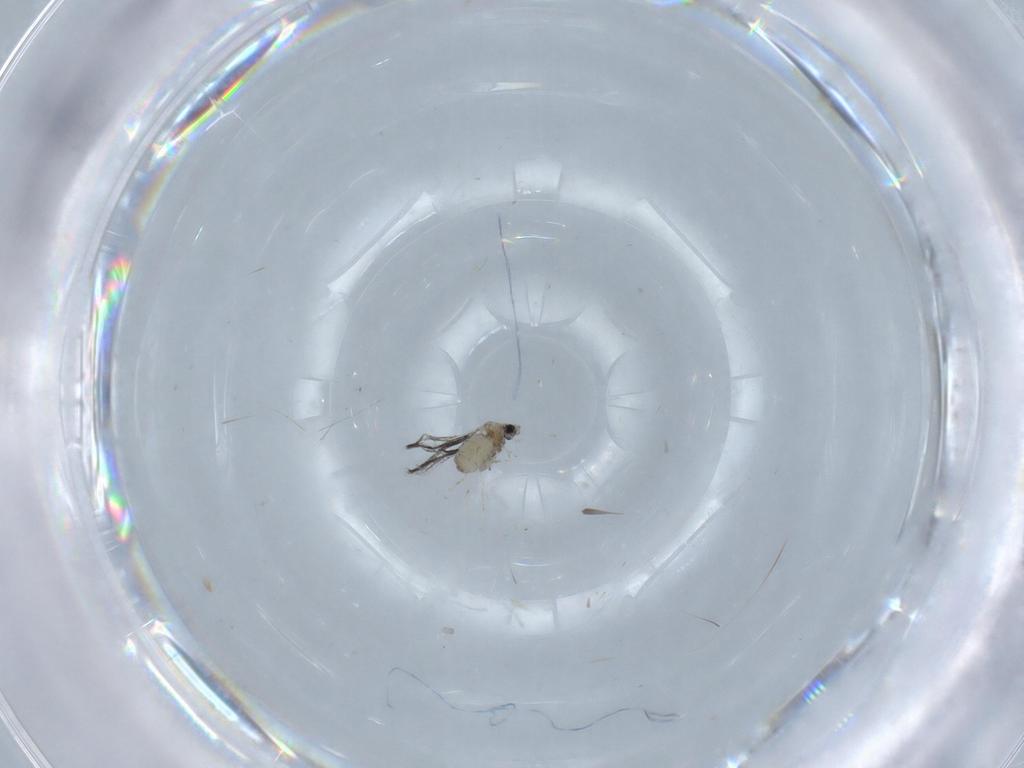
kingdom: Animalia
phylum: Arthropoda
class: Insecta
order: Diptera
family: Cecidomyiidae
